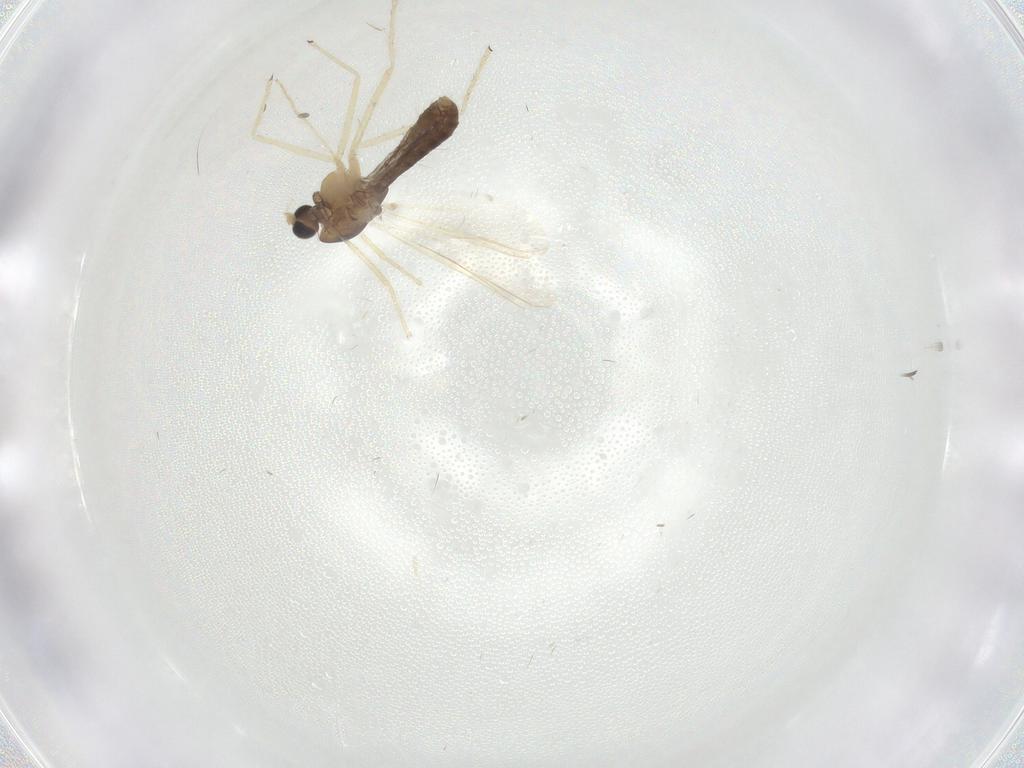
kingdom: Animalia
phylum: Arthropoda
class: Insecta
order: Diptera
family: Chironomidae
